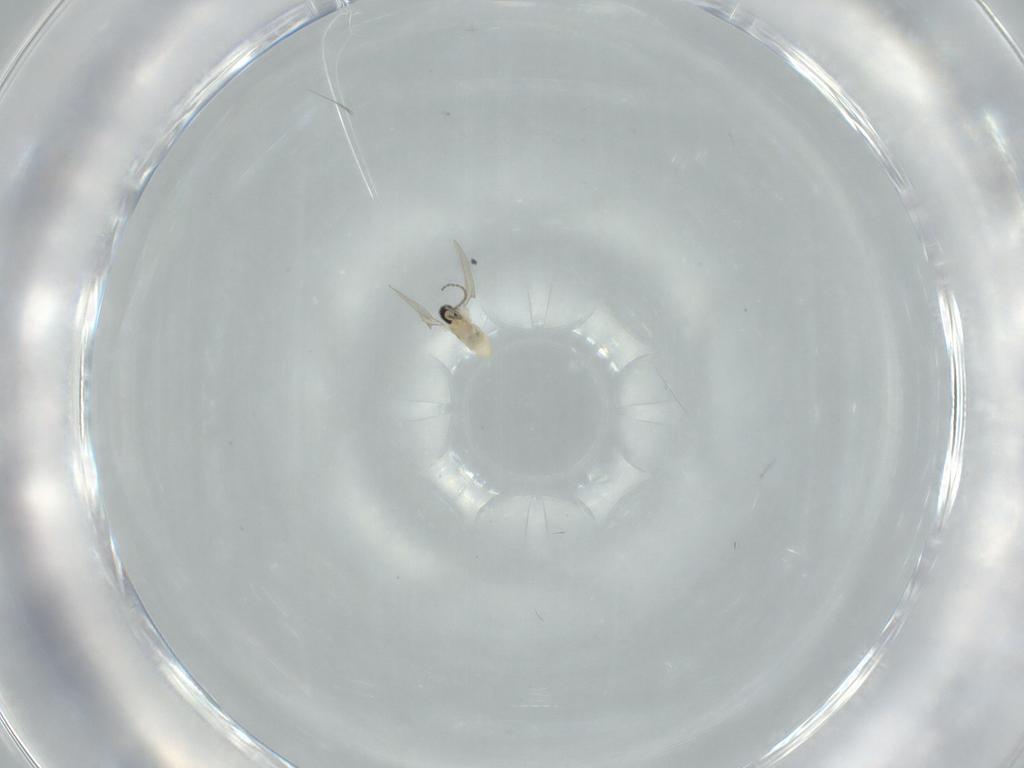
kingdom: Animalia
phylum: Arthropoda
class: Insecta
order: Diptera
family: Cecidomyiidae
